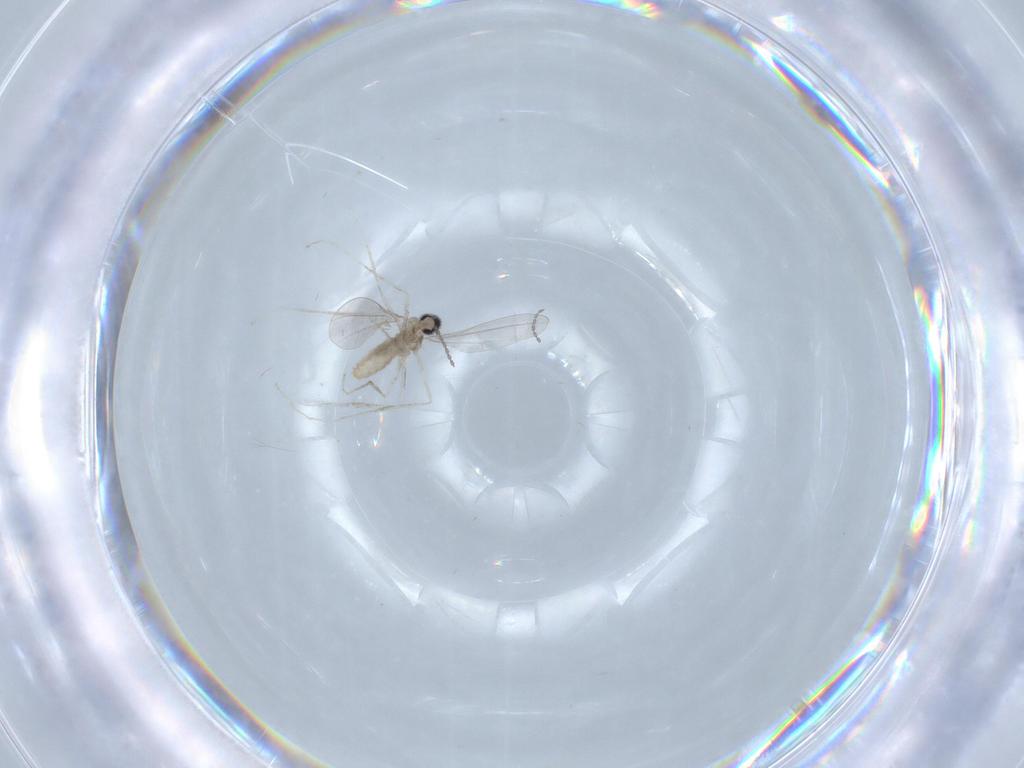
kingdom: Animalia
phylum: Arthropoda
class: Insecta
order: Diptera
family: Cecidomyiidae
